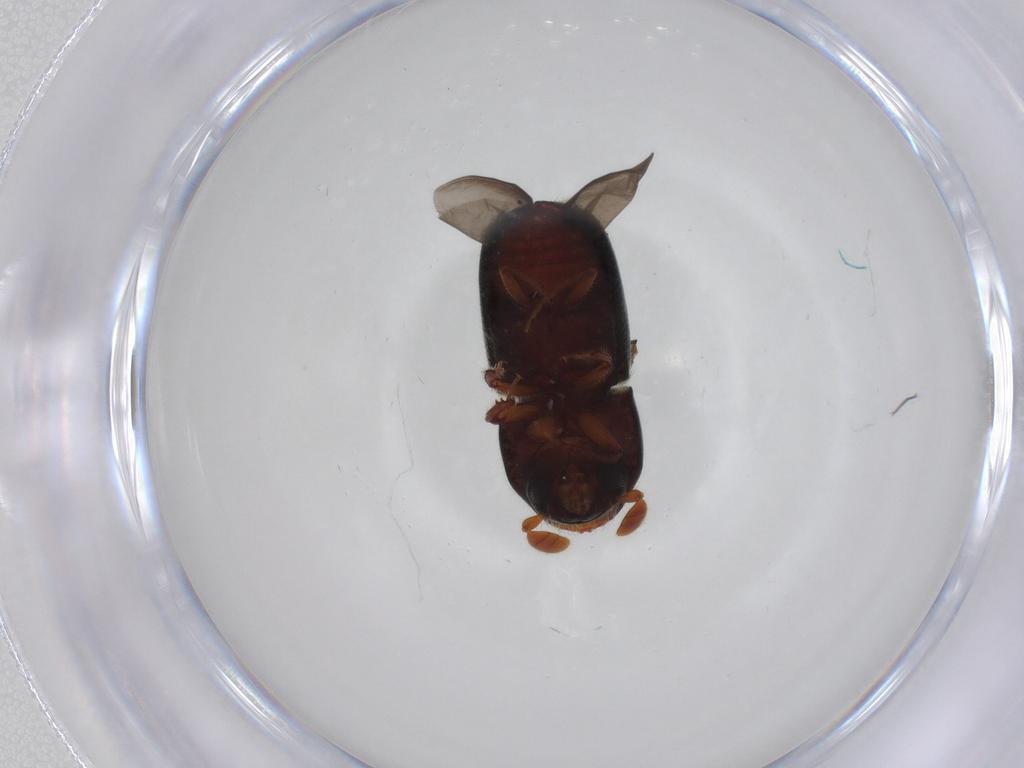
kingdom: Animalia
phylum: Arthropoda
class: Insecta
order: Coleoptera
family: Curculionidae
